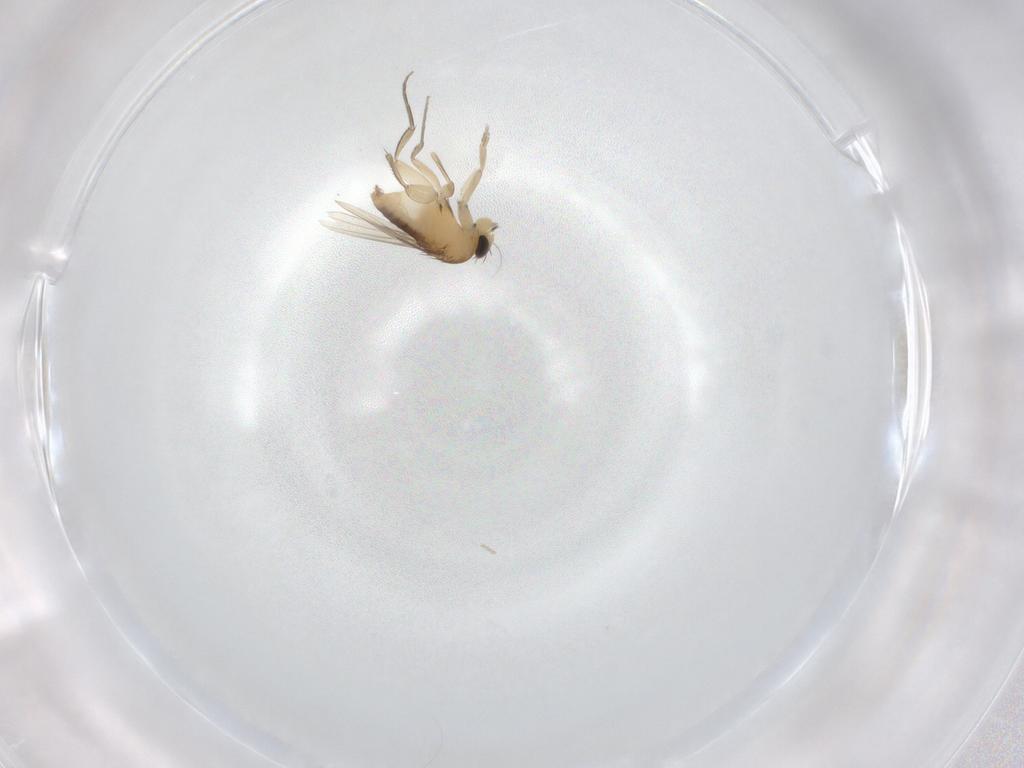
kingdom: Animalia
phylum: Arthropoda
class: Insecta
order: Diptera
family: Phoridae
